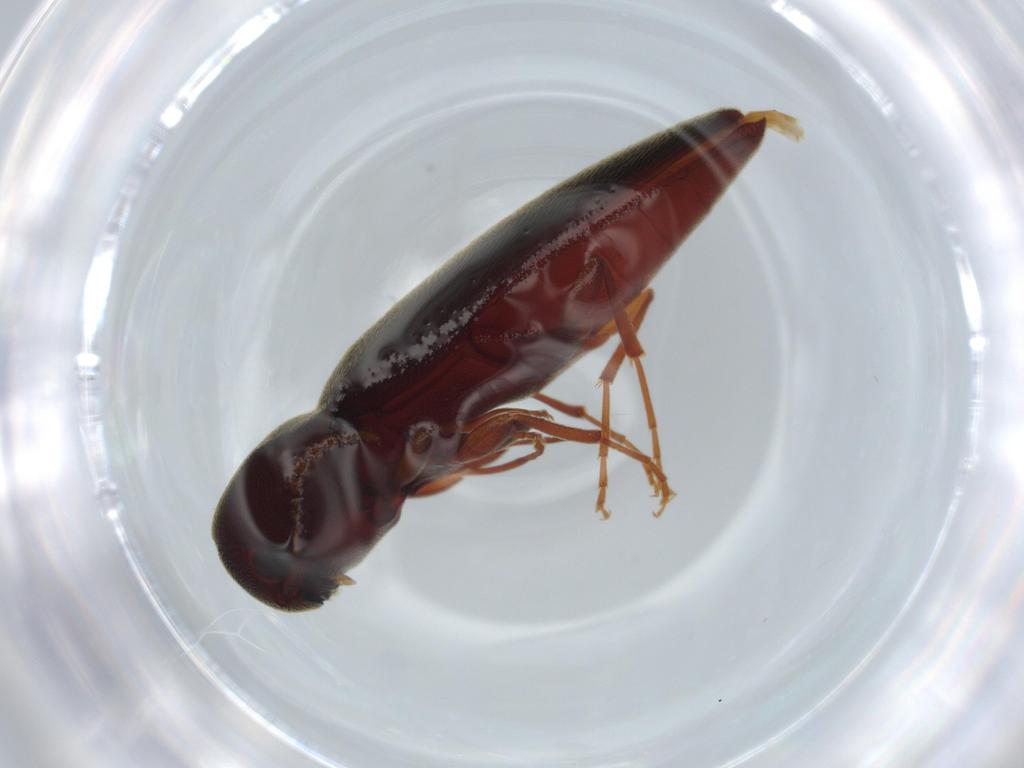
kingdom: Animalia
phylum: Arthropoda
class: Insecta
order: Coleoptera
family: Eucnemidae
